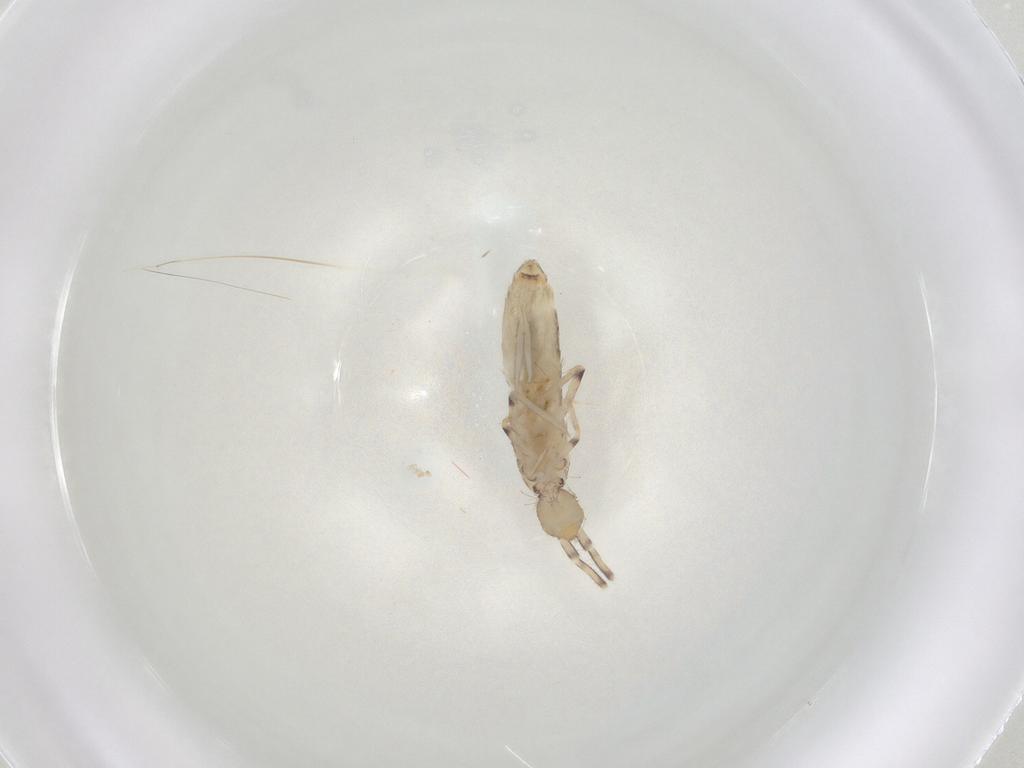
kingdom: Animalia
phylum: Arthropoda
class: Collembola
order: Entomobryomorpha
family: Entomobryidae
